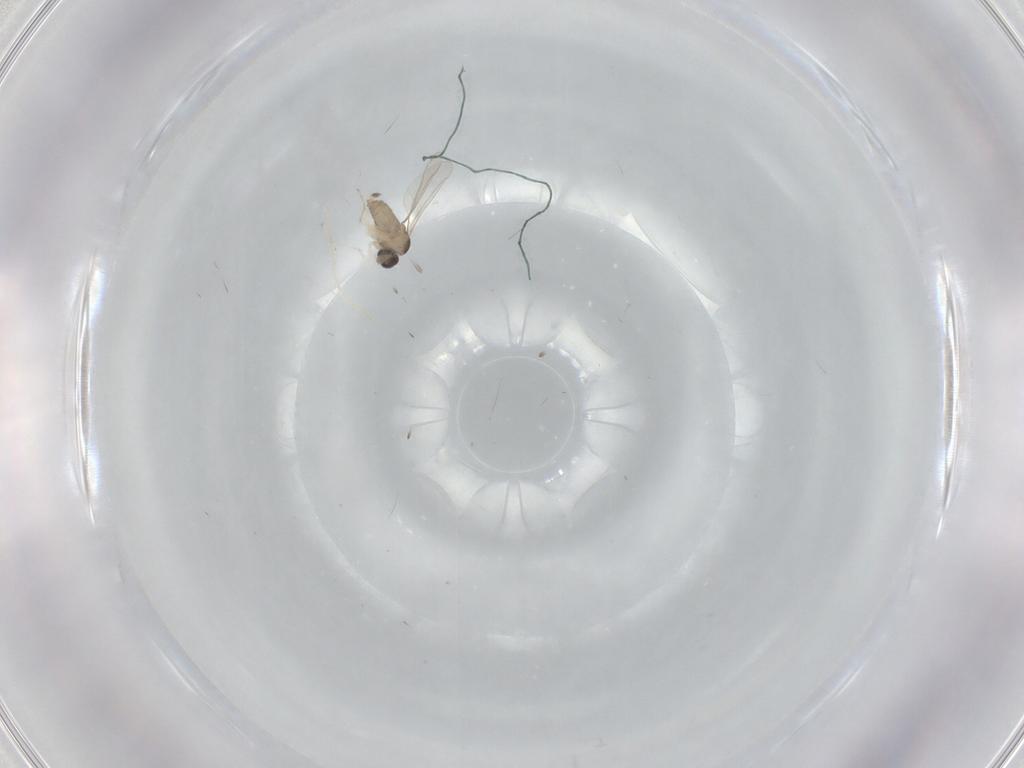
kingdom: Animalia
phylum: Arthropoda
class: Insecta
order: Diptera
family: Cecidomyiidae
